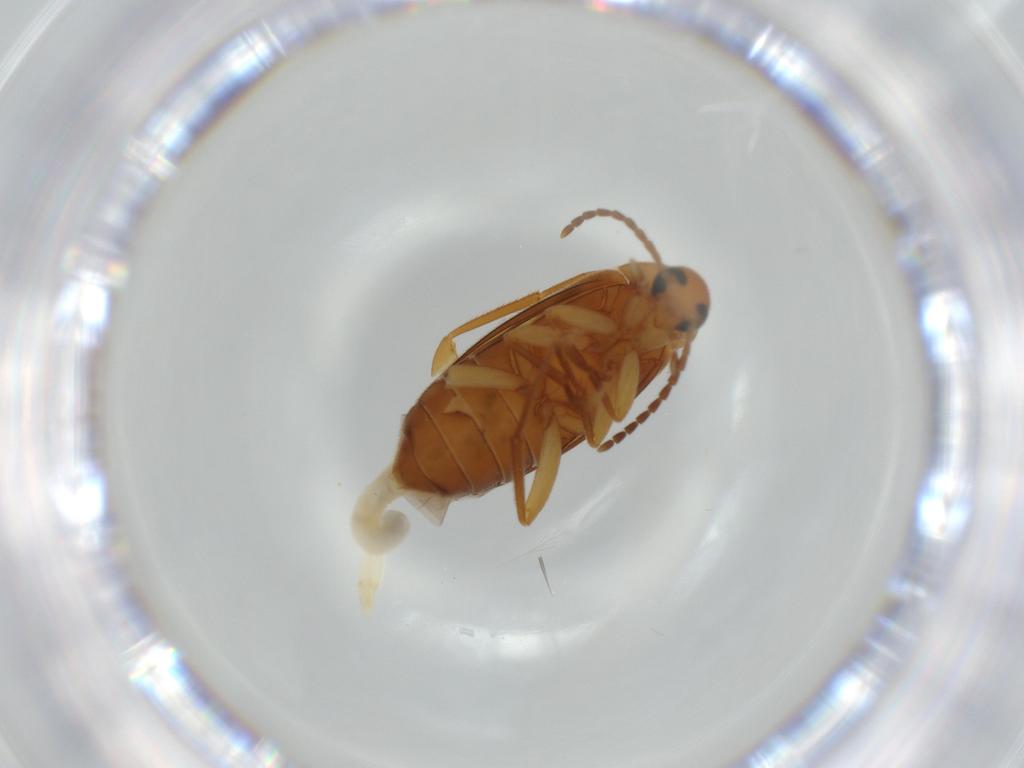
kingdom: Animalia
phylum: Arthropoda
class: Insecta
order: Coleoptera
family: Scraptiidae
